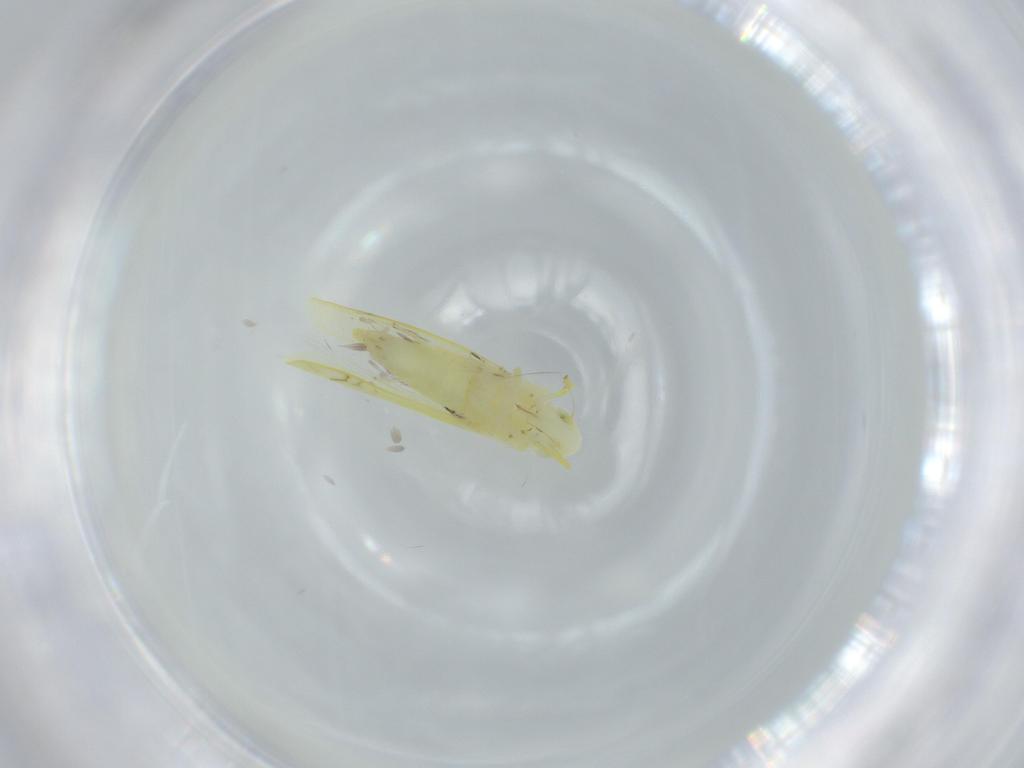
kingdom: Animalia
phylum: Arthropoda
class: Insecta
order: Hemiptera
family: Cicadellidae
